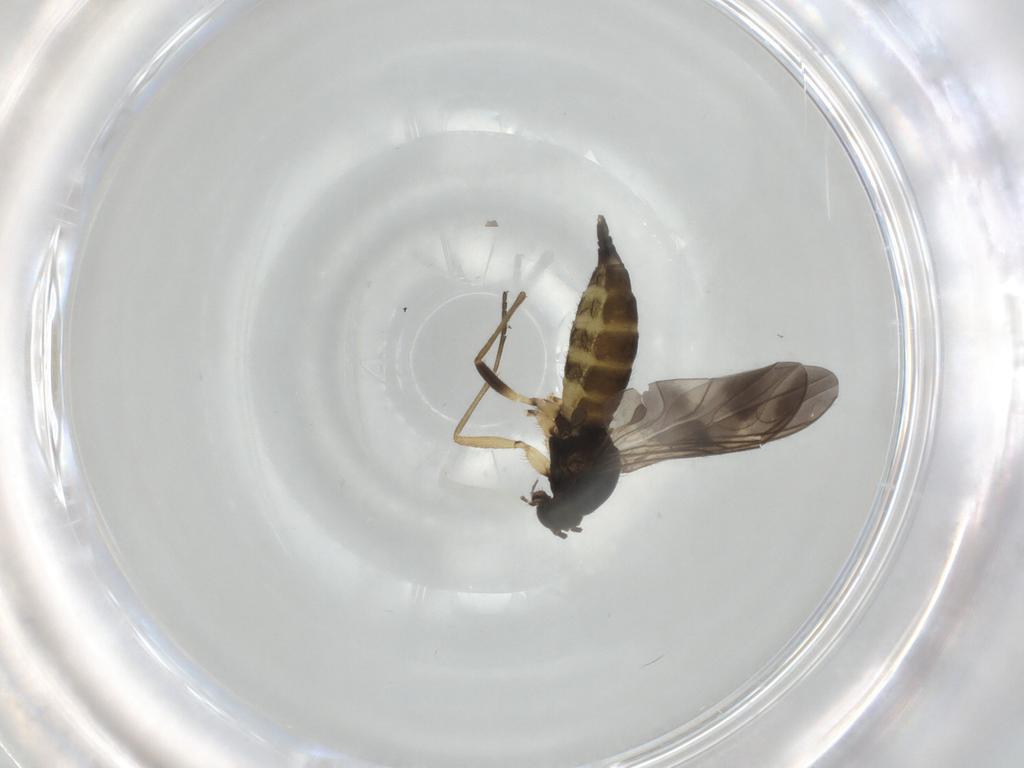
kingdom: Animalia
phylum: Arthropoda
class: Insecta
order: Diptera
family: Sciaridae
